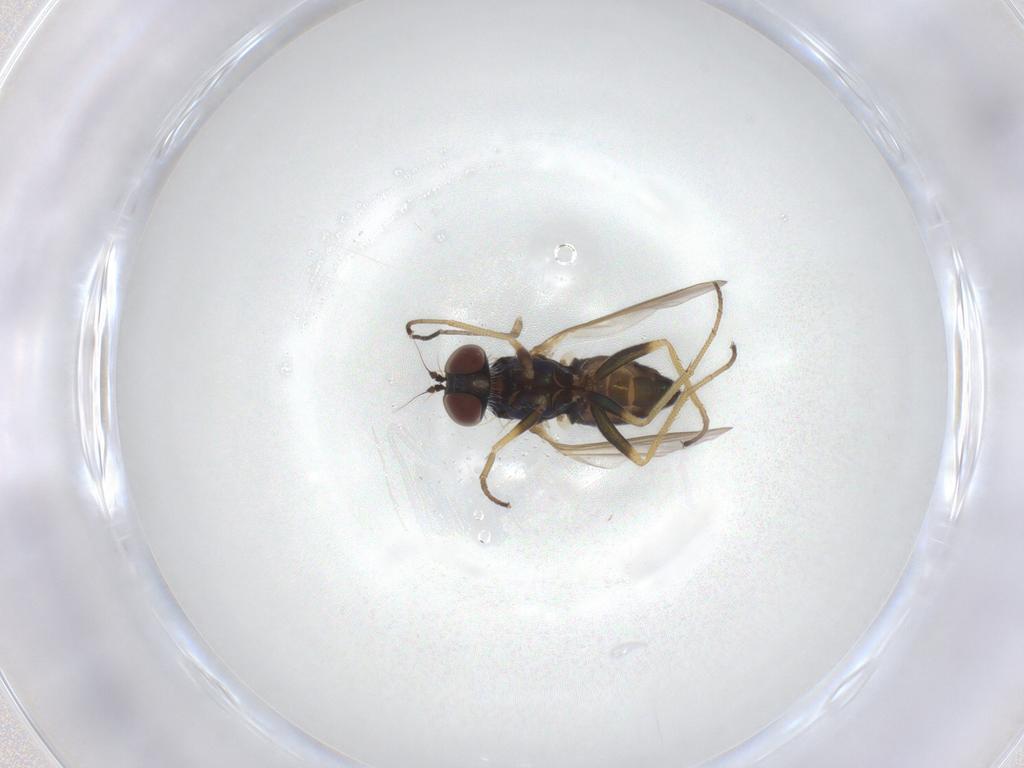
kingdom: Animalia
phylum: Arthropoda
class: Insecta
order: Diptera
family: Dolichopodidae
